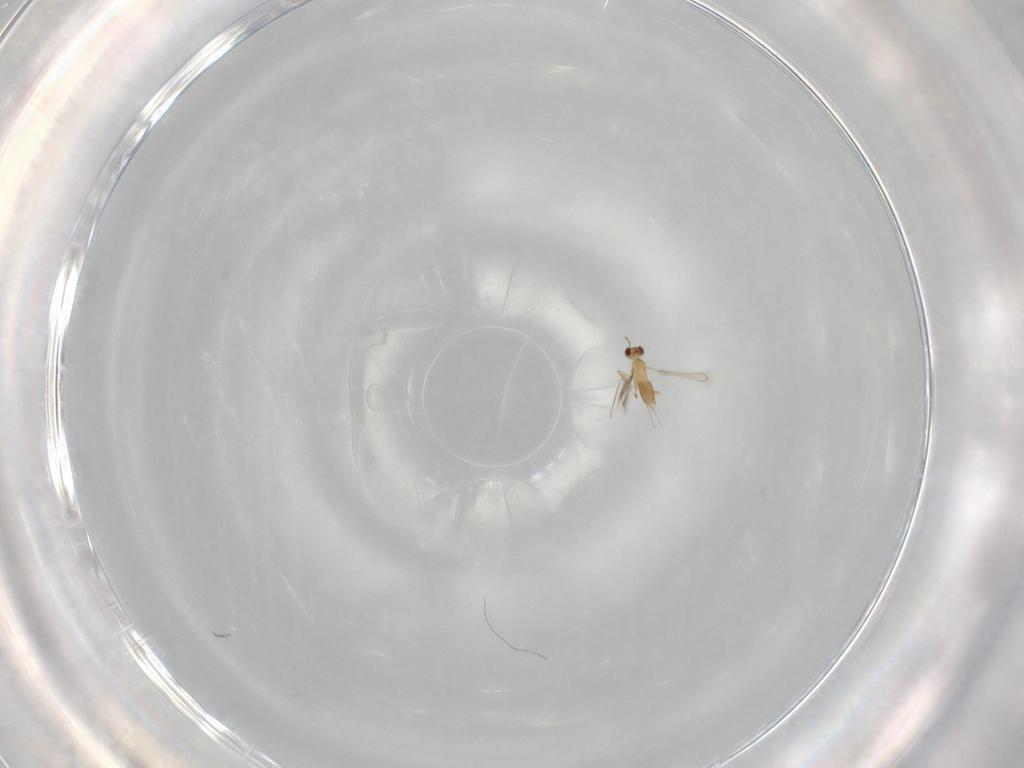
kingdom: Animalia
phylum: Arthropoda
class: Insecta
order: Hymenoptera
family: Mymaridae
